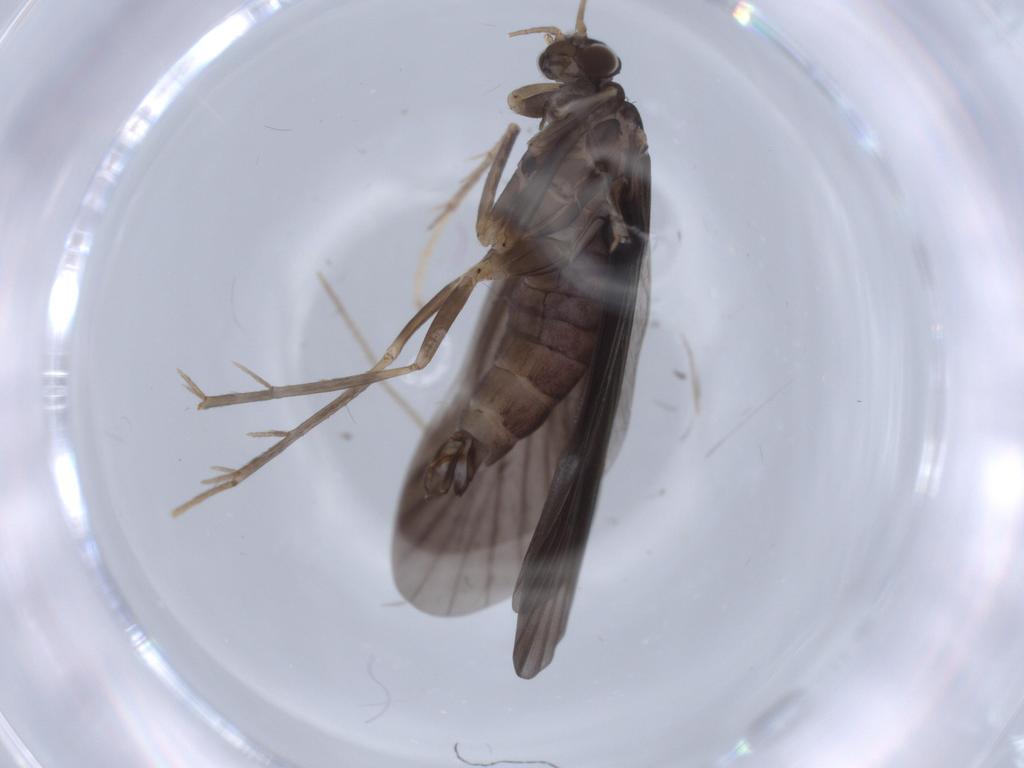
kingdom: Animalia
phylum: Arthropoda
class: Insecta
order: Trichoptera
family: Hydropsychidae
